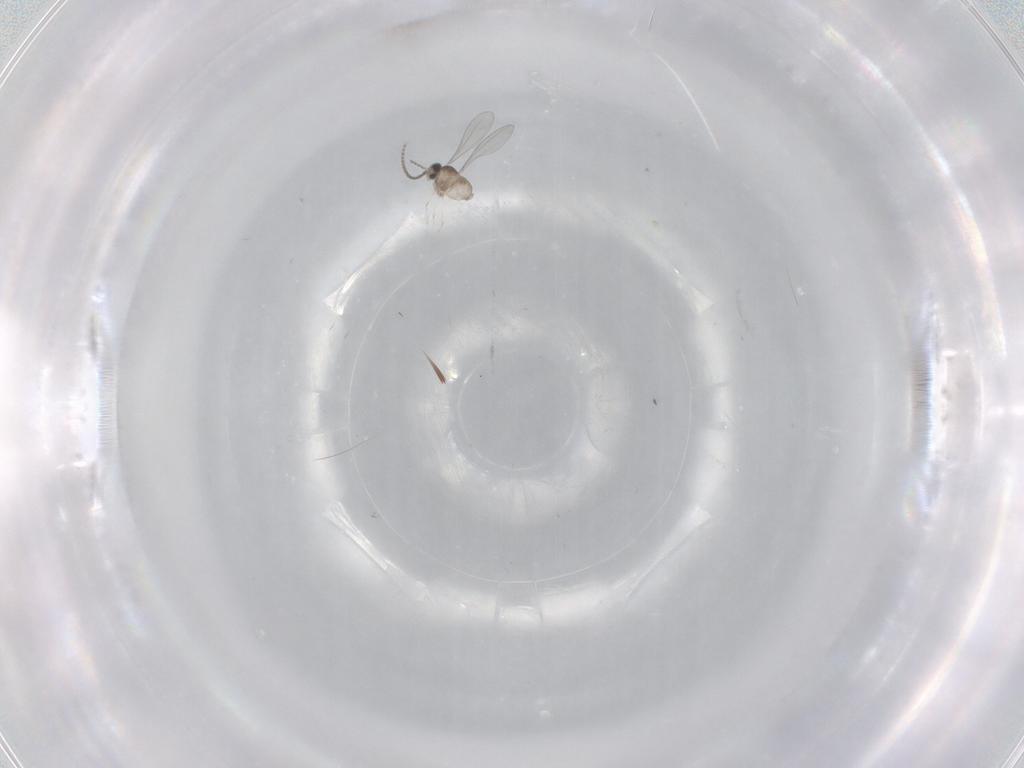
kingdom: Animalia
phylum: Arthropoda
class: Insecta
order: Diptera
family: Cecidomyiidae
